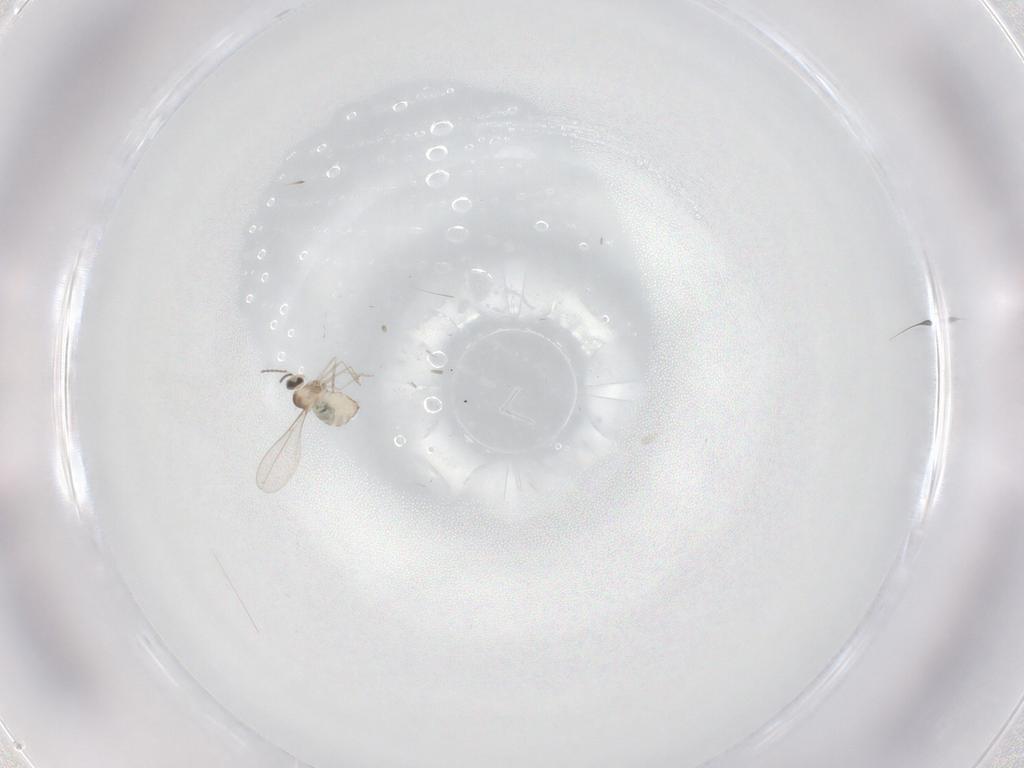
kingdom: Animalia
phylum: Arthropoda
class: Insecta
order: Diptera
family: Cecidomyiidae
